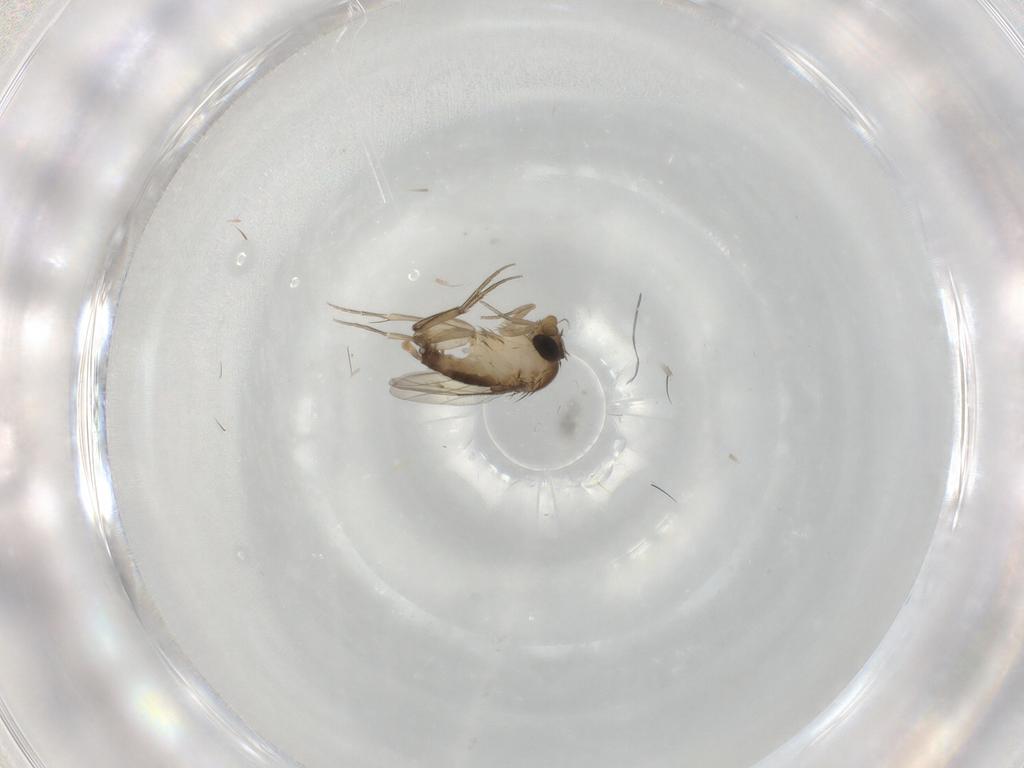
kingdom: Animalia
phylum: Arthropoda
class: Insecta
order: Diptera
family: Phoridae
